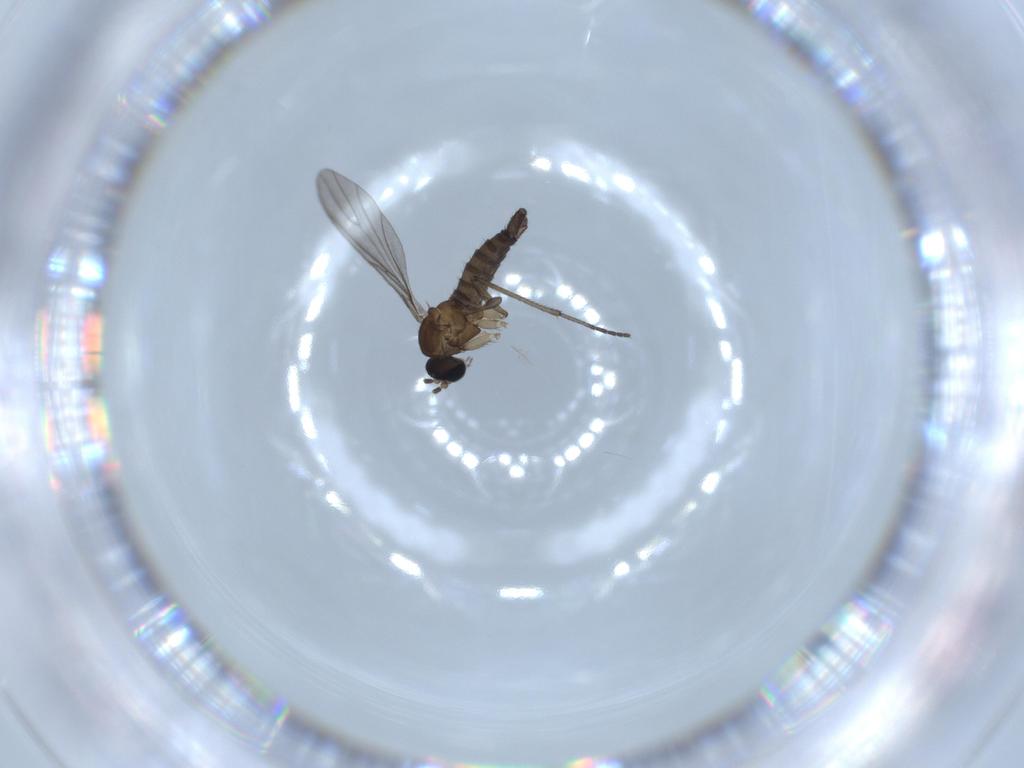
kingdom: Animalia
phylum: Arthropoda
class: Insecta
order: Diptera
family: Sciaridae
